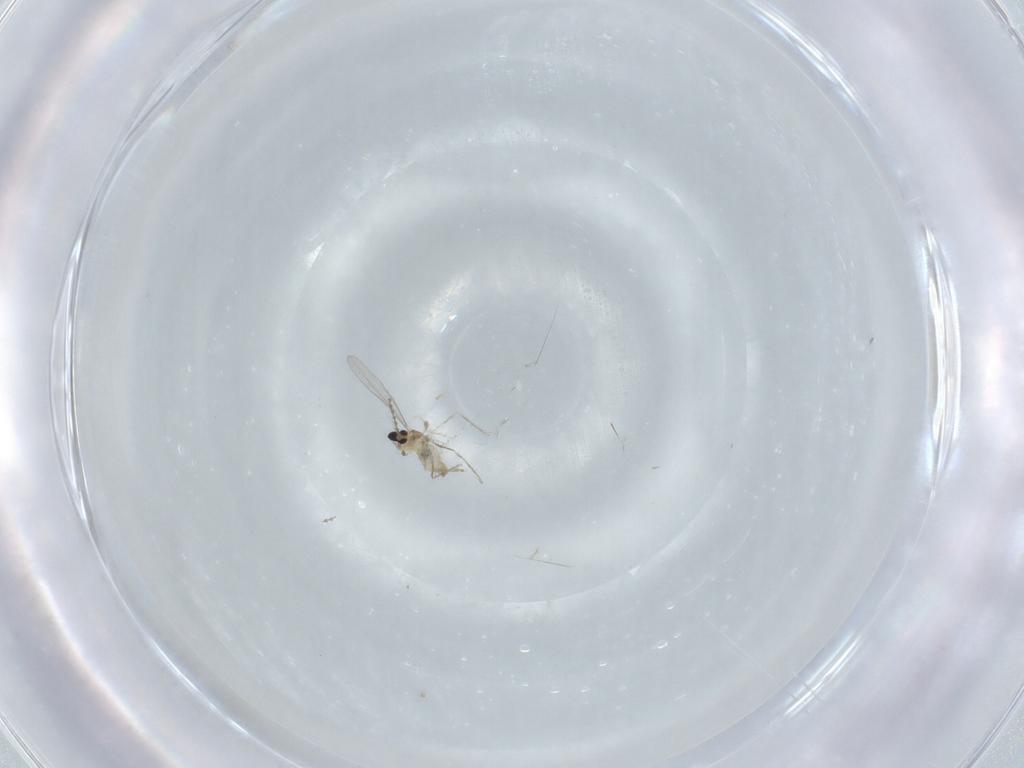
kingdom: Animalia
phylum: Arthropoda
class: Insecta
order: Diptera
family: Cecidomyiidae
